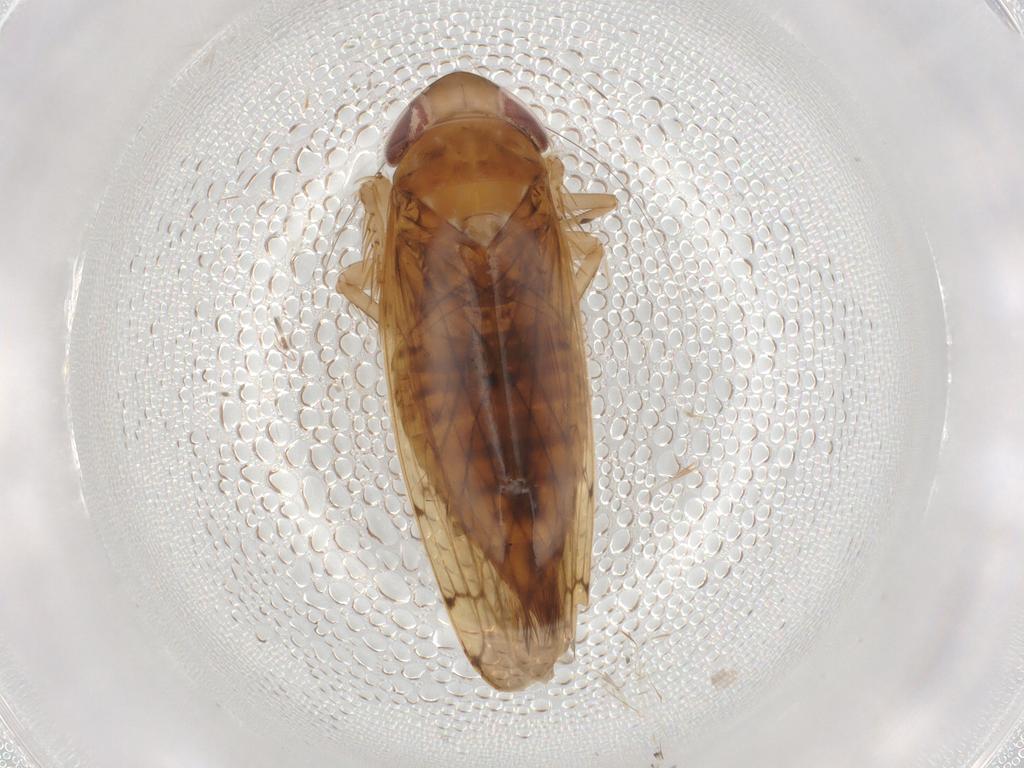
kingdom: Animalia
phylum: Arthropoda
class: Insecta
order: Hemiptera
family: Cicadellidae
